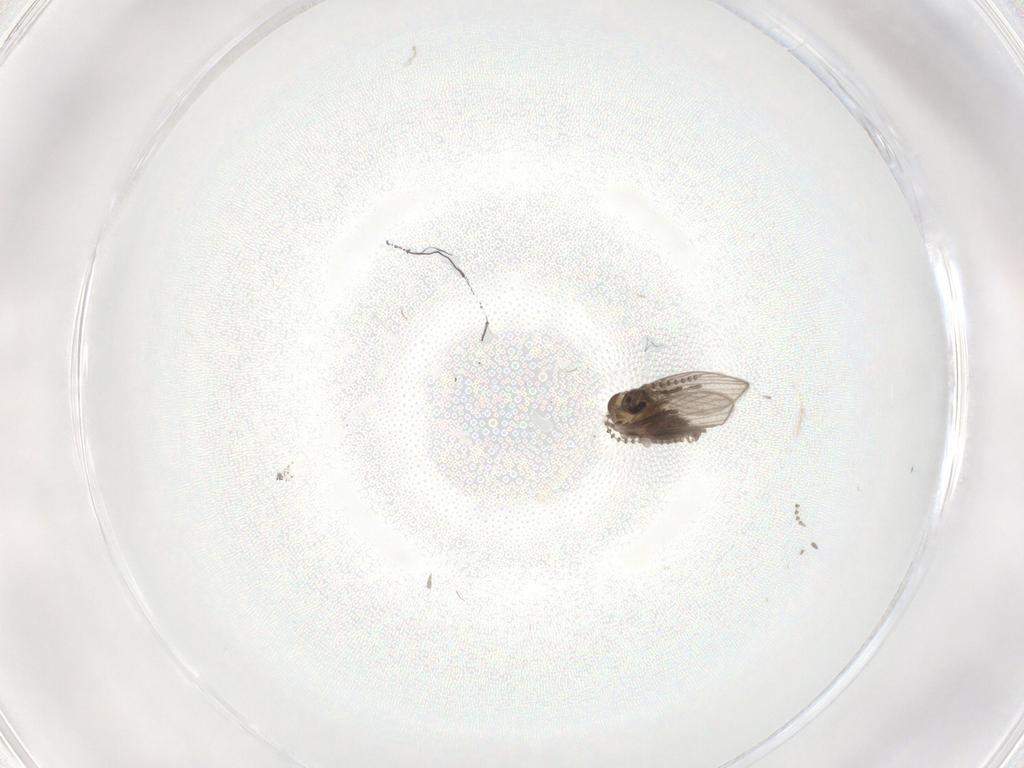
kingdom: Animalia
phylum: Arthropoda
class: Insecta
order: Diptera
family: Psychodidae
